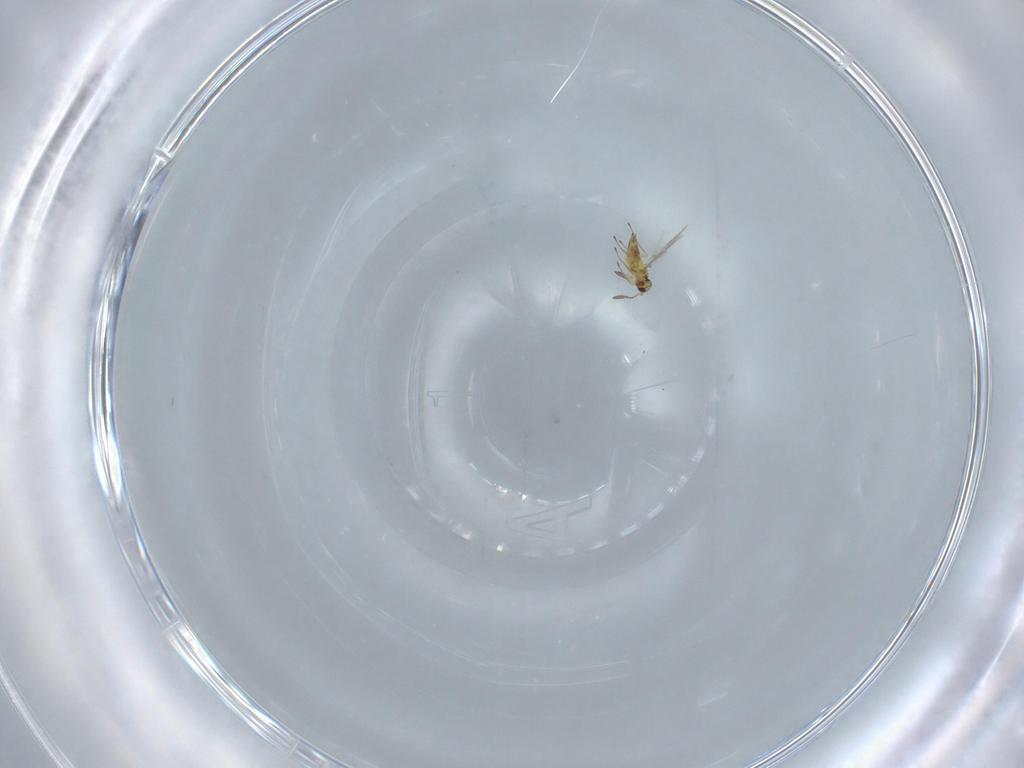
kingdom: Animalia
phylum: Arthropoda
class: Insecta
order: Hymenoptera
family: Mymaridae
